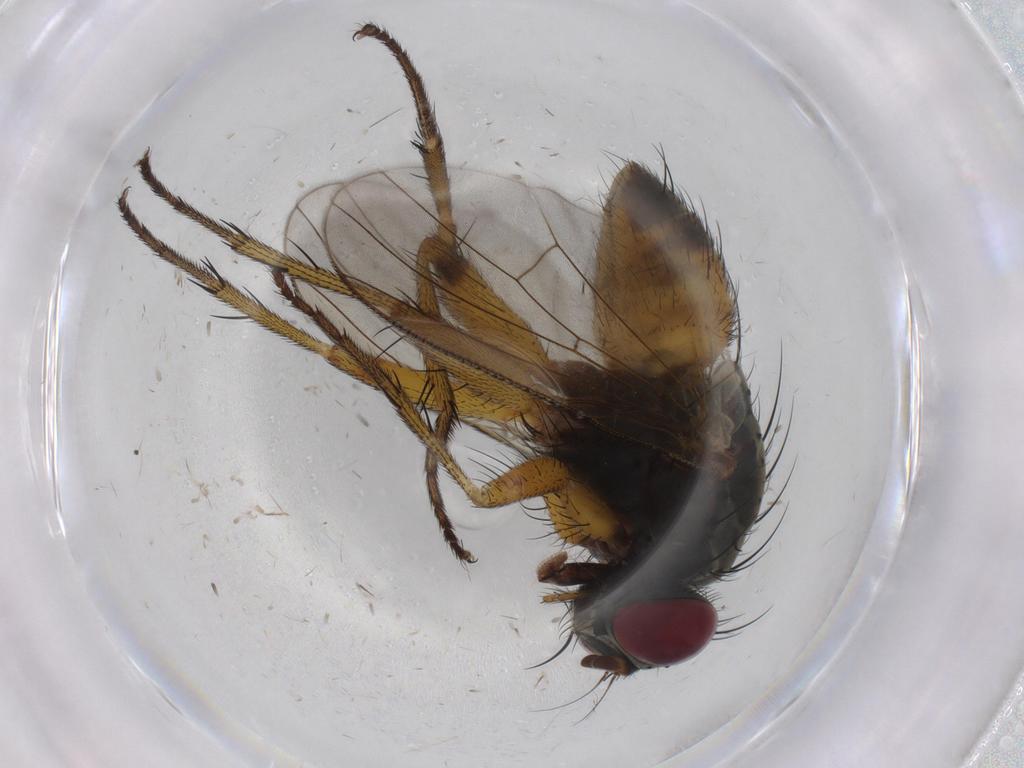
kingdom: Animalia
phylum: Arthropoda
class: Insecta
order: Diptera
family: Muscidae
